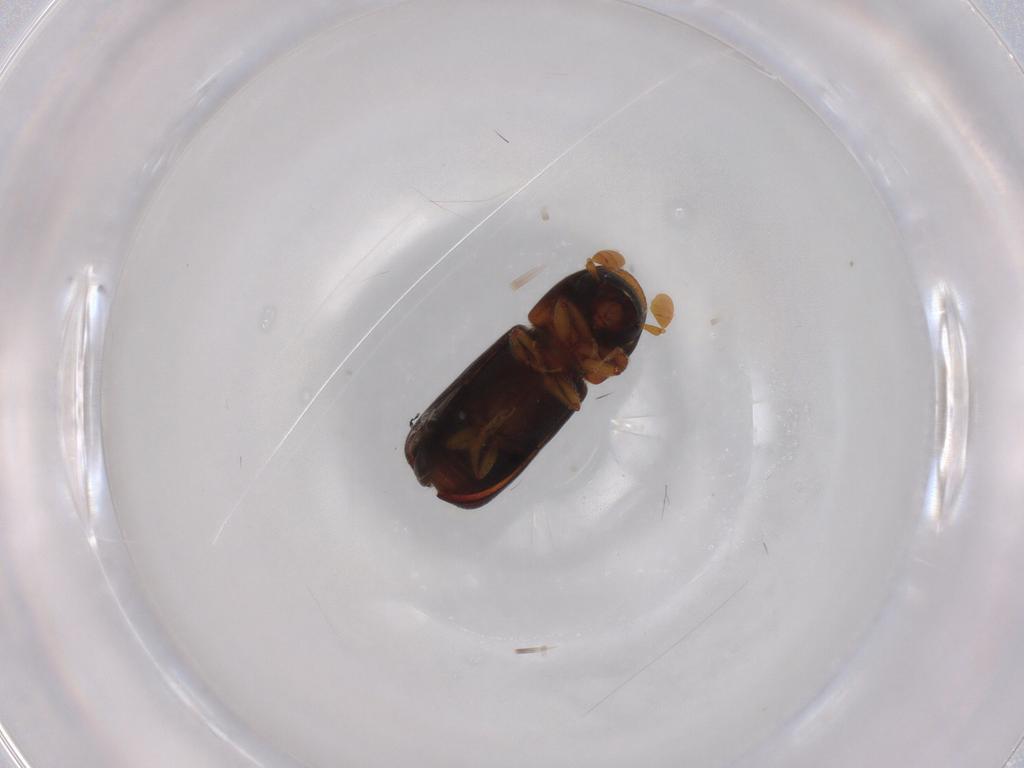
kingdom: Animalia
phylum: Arthropoda
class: Insecta
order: Coleoptera
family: Curculionidae
